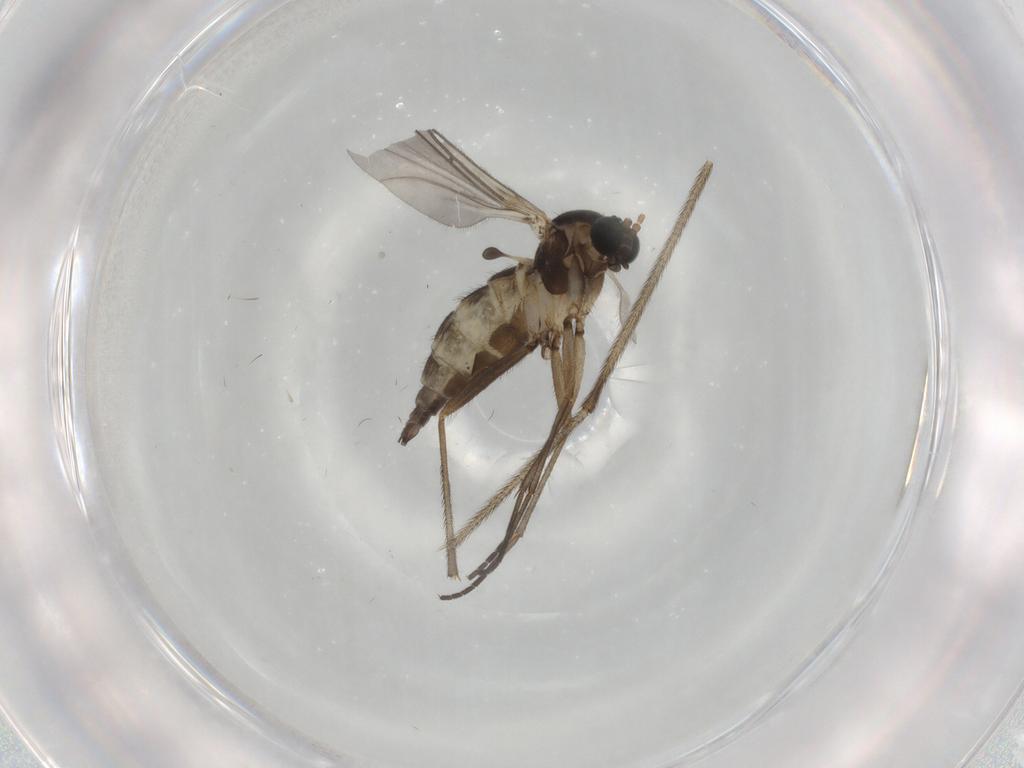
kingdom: Animalia
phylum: Arthropoda
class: Insecta
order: Diptera
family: Sciaridae
